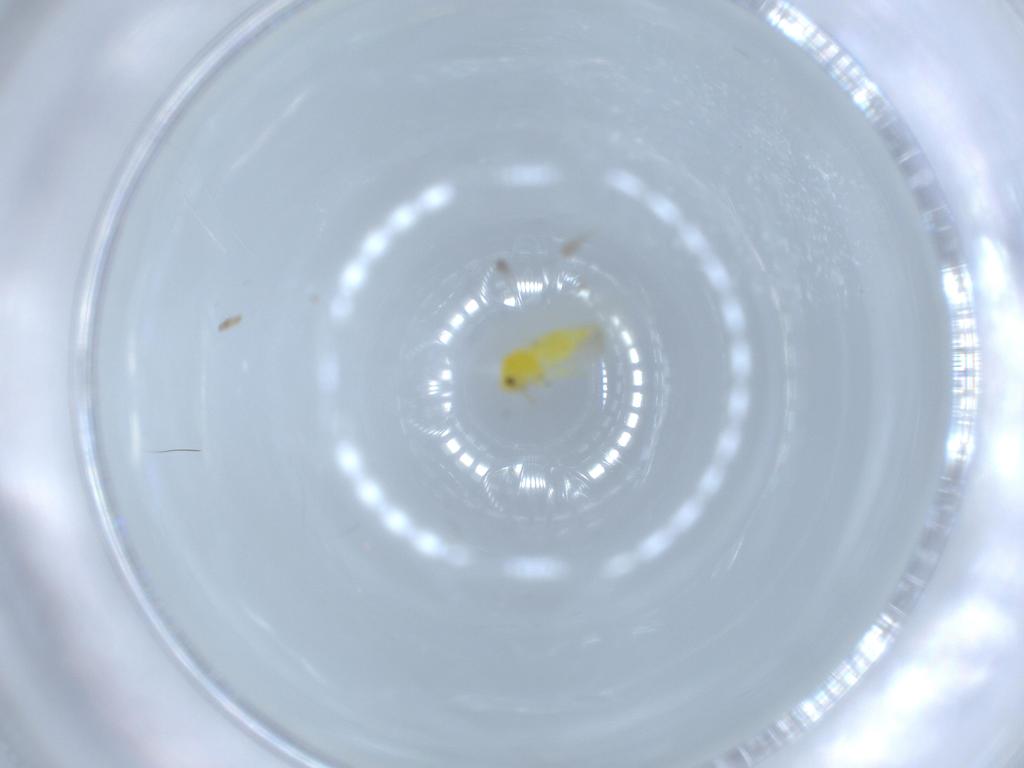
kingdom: Animalia
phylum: Arthropoda
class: Insecta
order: Hemiptera
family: Aleyrodidae
